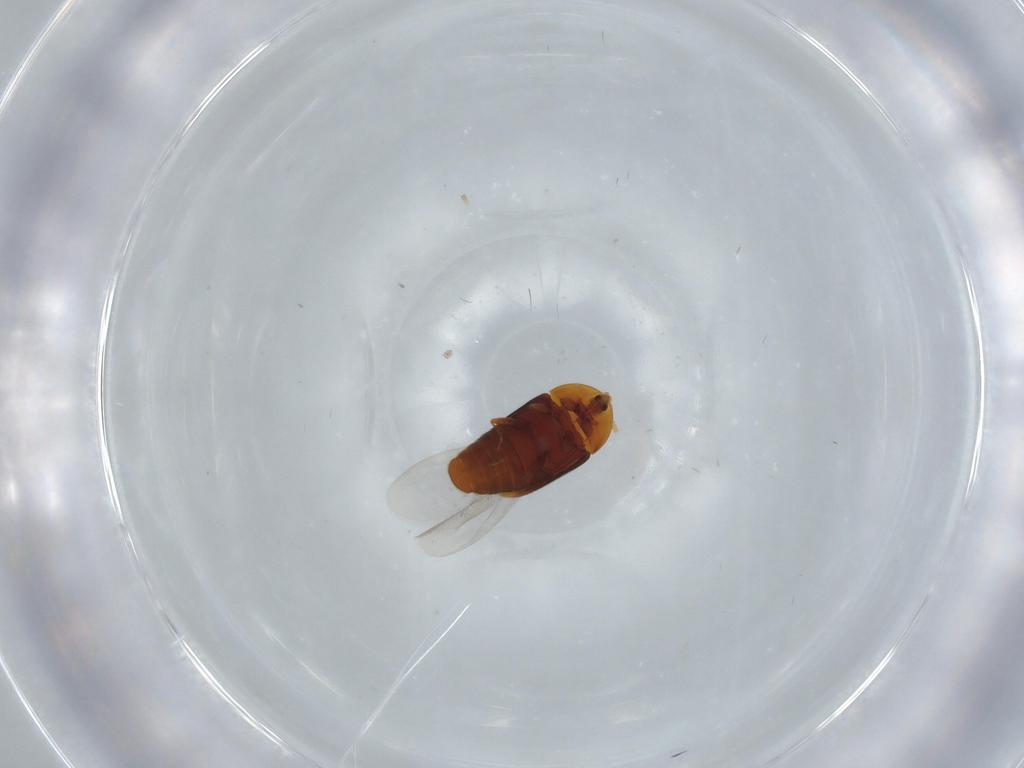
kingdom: Animalia
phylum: Arthropoda
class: Insecta
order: Coleoptera
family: Corylophidae
